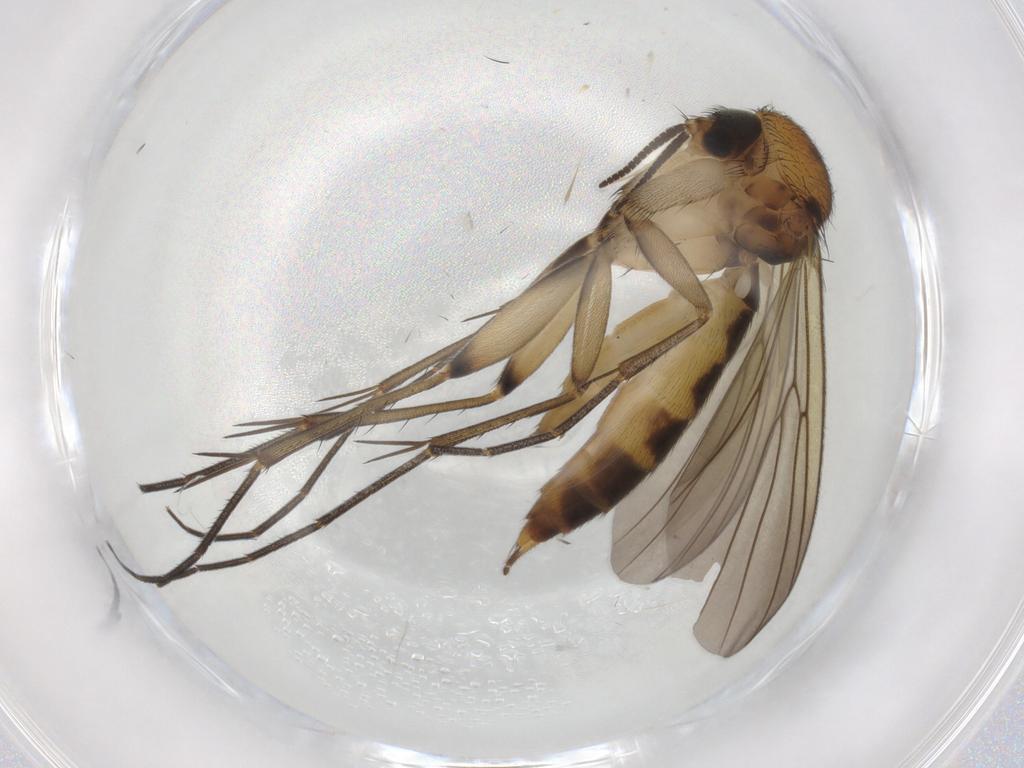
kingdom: Animalia
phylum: Arthropoda
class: Insecta
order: Diptera
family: Mycetophilidae
